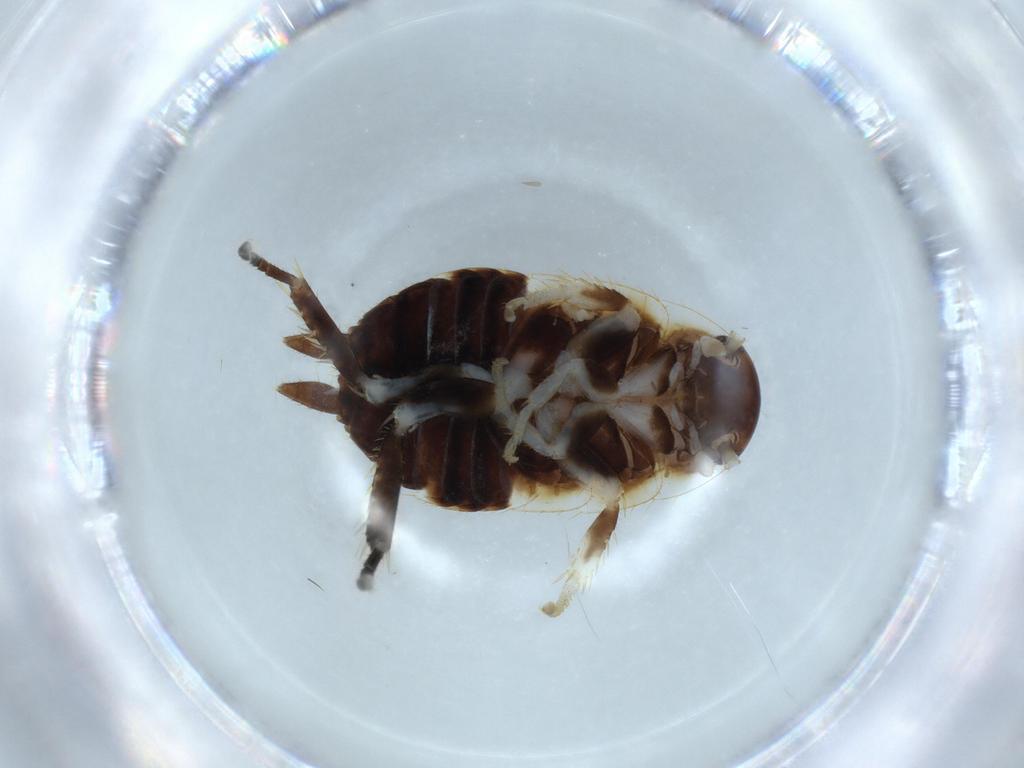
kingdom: Animalia
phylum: Arthropoda
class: Insecta
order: Blattodea
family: Ectobiidae
